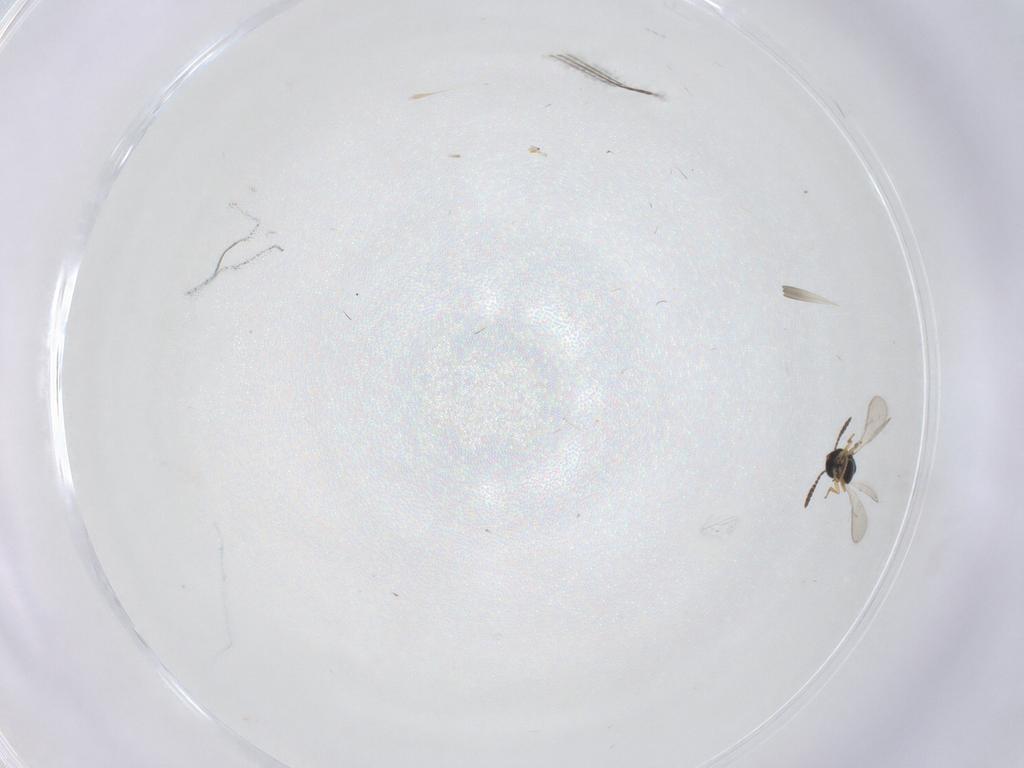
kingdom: Animalia
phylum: Arthropoda
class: Insecta
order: Hymenoptera
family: Scelionidae
